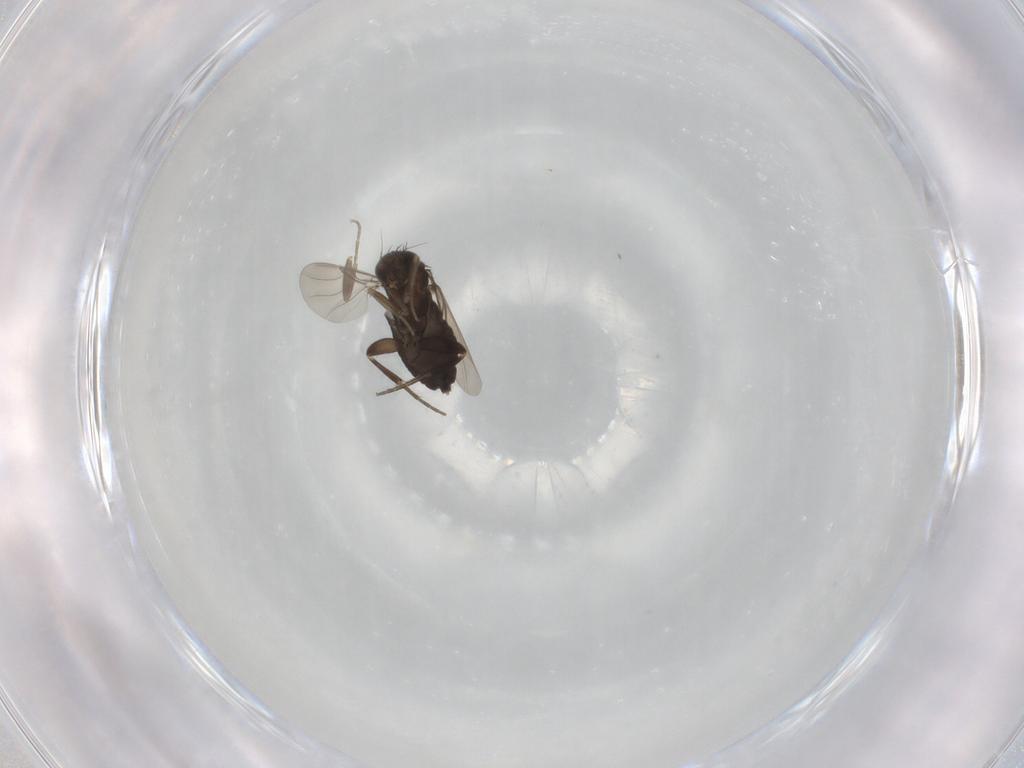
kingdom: Animalia
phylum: Arthropoda
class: Insecta
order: Diptera
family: Phoridae
